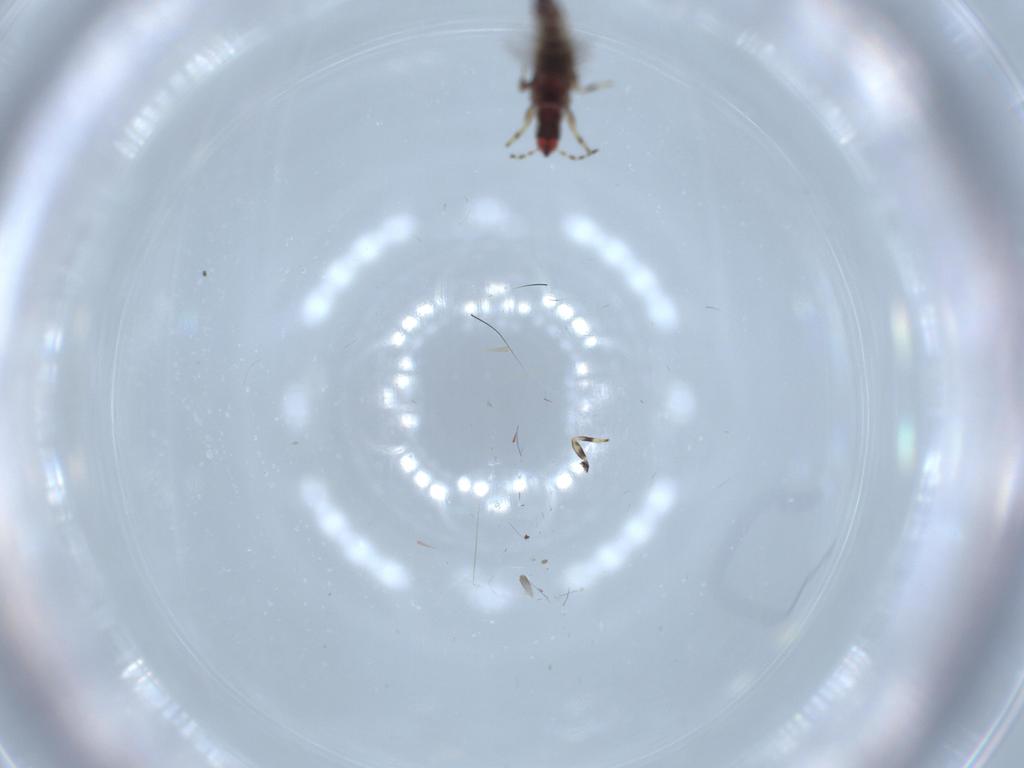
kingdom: Animalia
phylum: Arthropoda
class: Insecta
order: Thysanoptera
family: Phlaeothripidae
